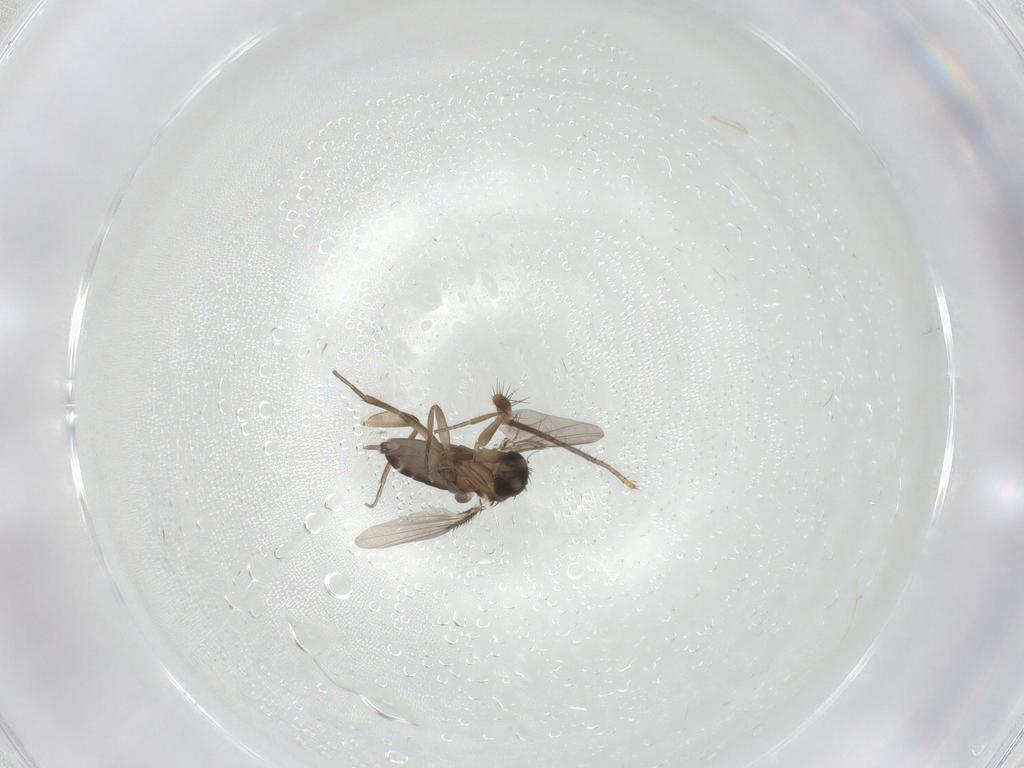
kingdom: Animalia
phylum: Arthropoda
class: Insecta
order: Diptera
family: Phoridae
